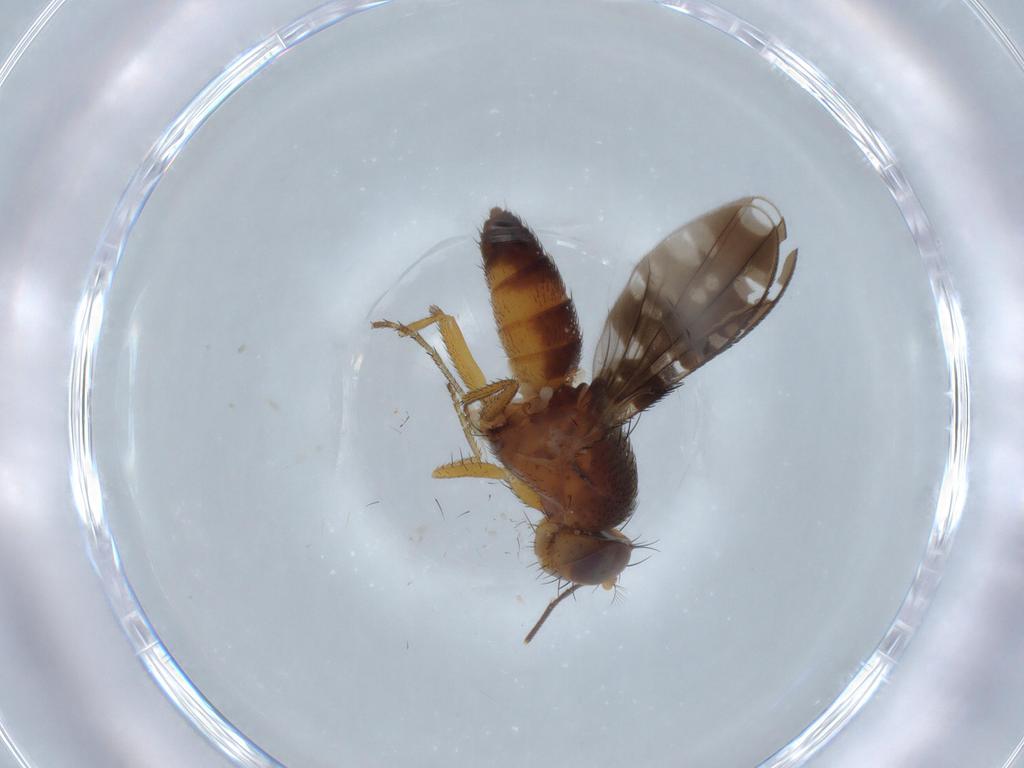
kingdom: Animalia
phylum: Arthropoda
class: Insecta
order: Diptera
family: Dolichopodidae
